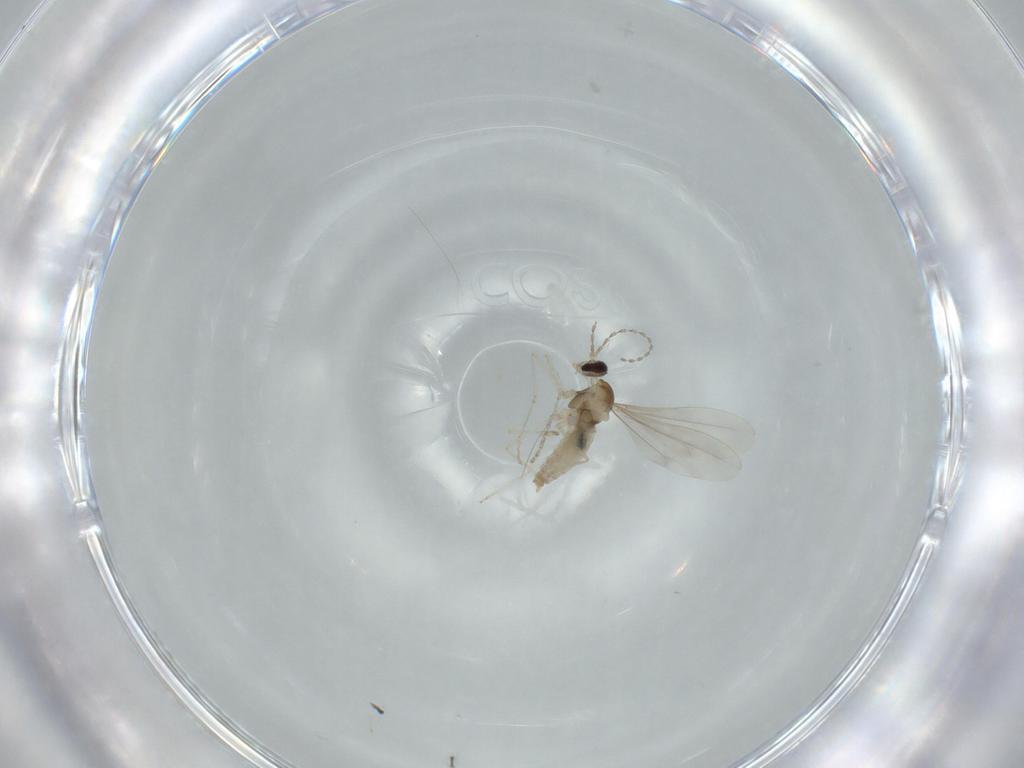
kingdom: Animalia
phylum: Arthropoda
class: Insecta
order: Diptera
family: Cecidomyiidae
